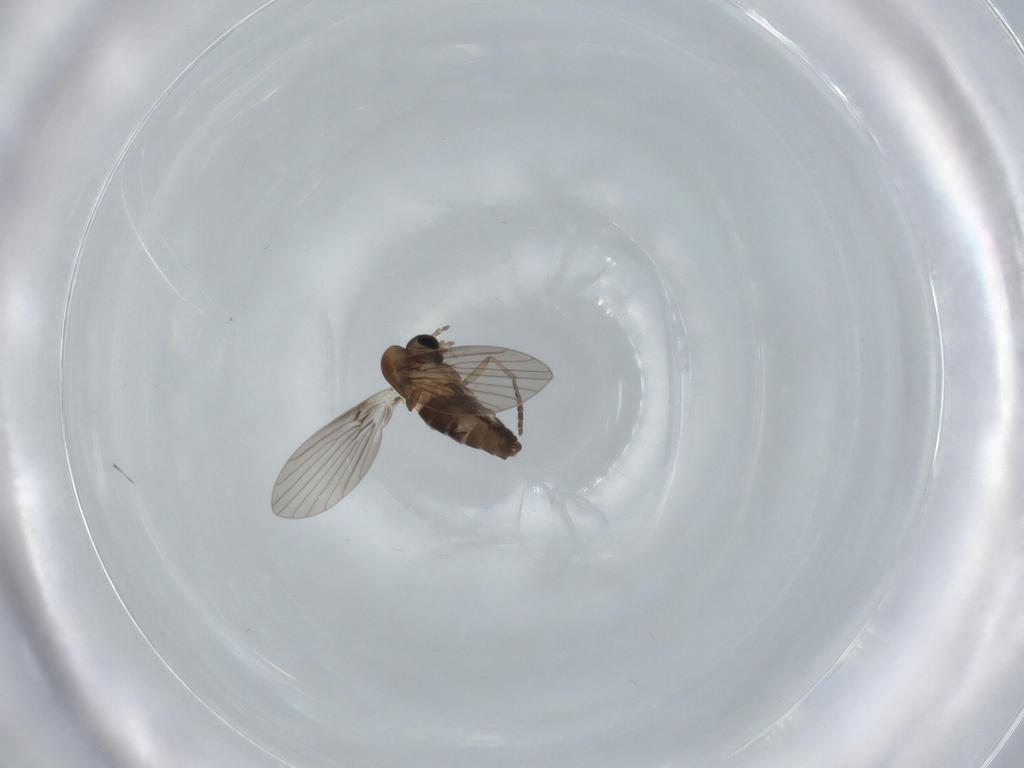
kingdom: Animalia
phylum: Arthropoda
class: Insecta
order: Diptera
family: Psychodidae
